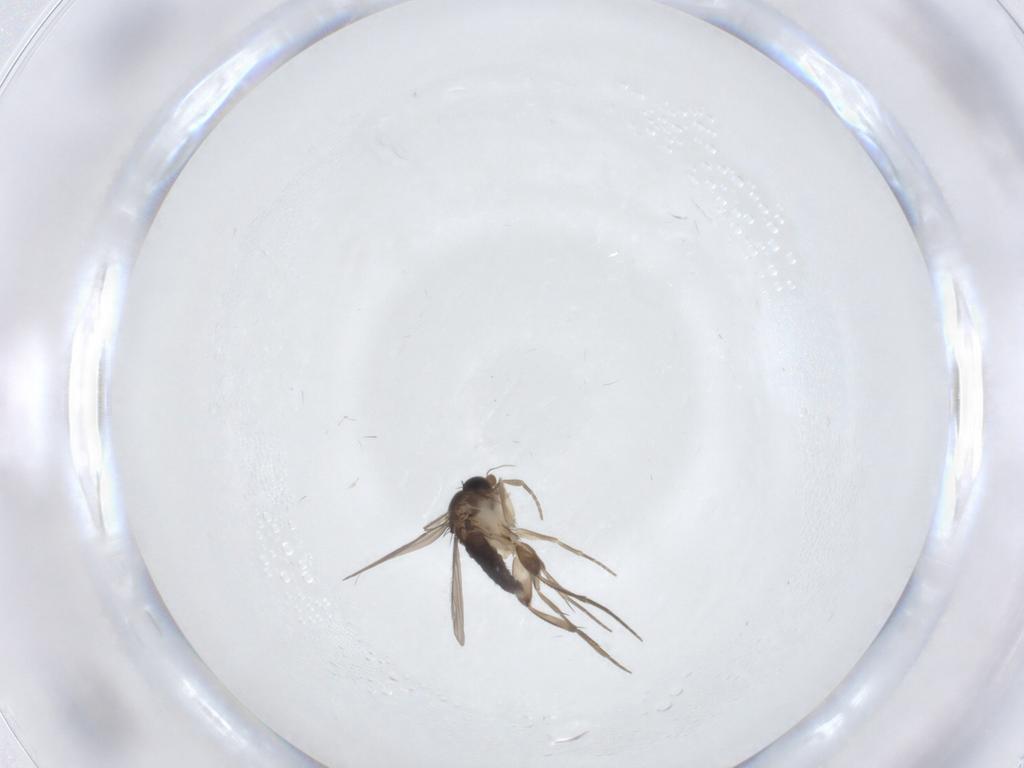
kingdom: Animalia
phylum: Arthropoda
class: Insecta
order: Diptera
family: Phoridae
